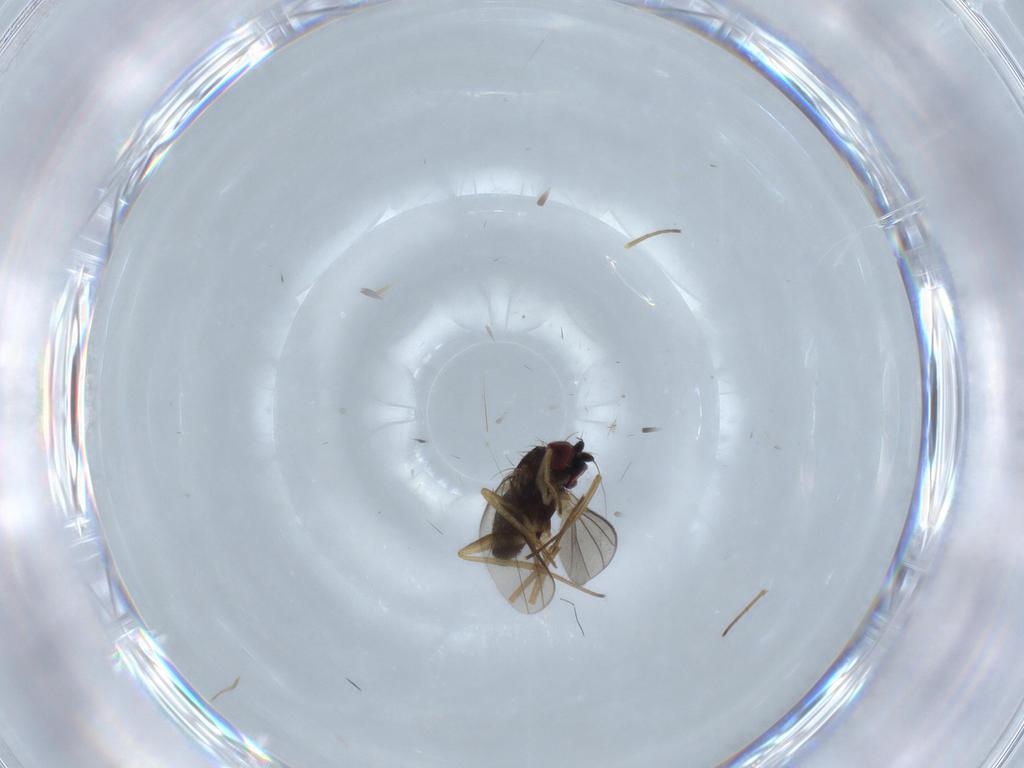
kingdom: Animalia
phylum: Arthropoda
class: Insecta
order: Diptera
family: Dolichopodidae
